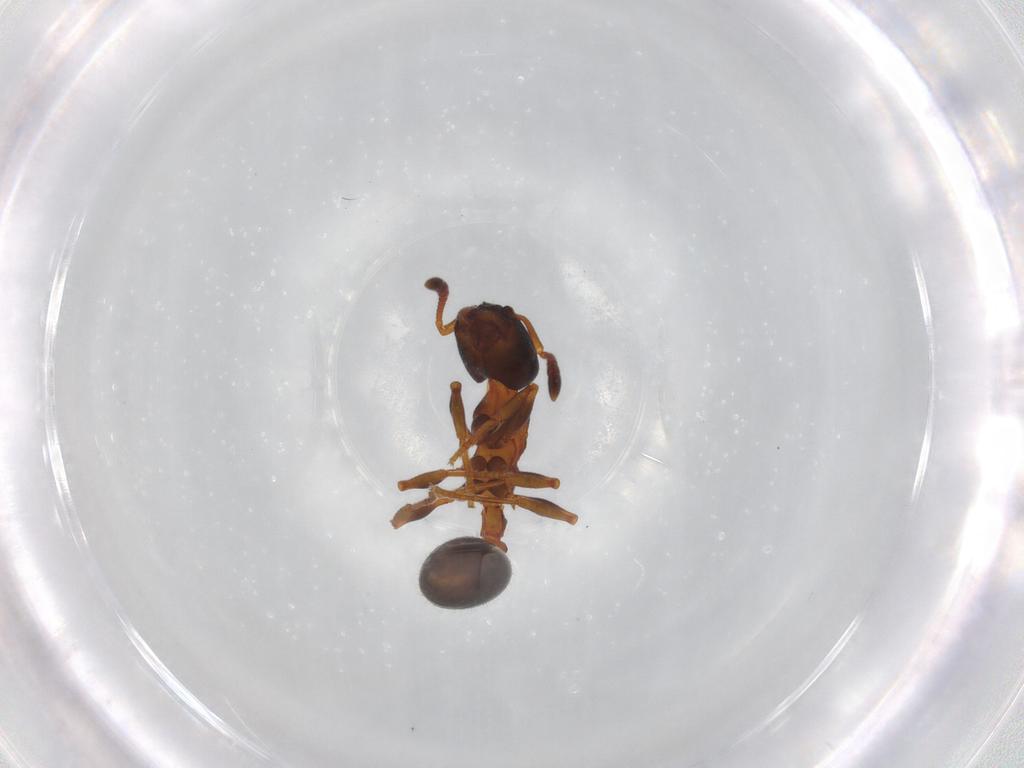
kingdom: Animalia
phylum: Arthropoda
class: Insecta
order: Hymenoptera
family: Formicidae
